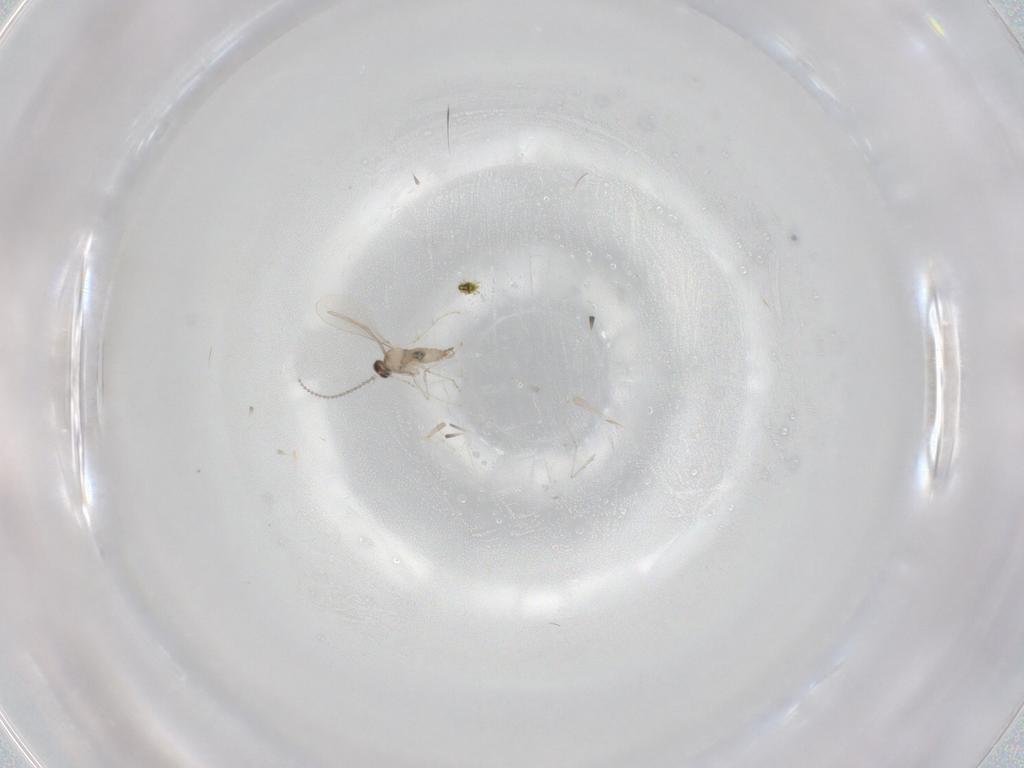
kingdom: Animalia
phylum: Arthropoda
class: Insecta
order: Diptera
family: Cecidomyiidae
